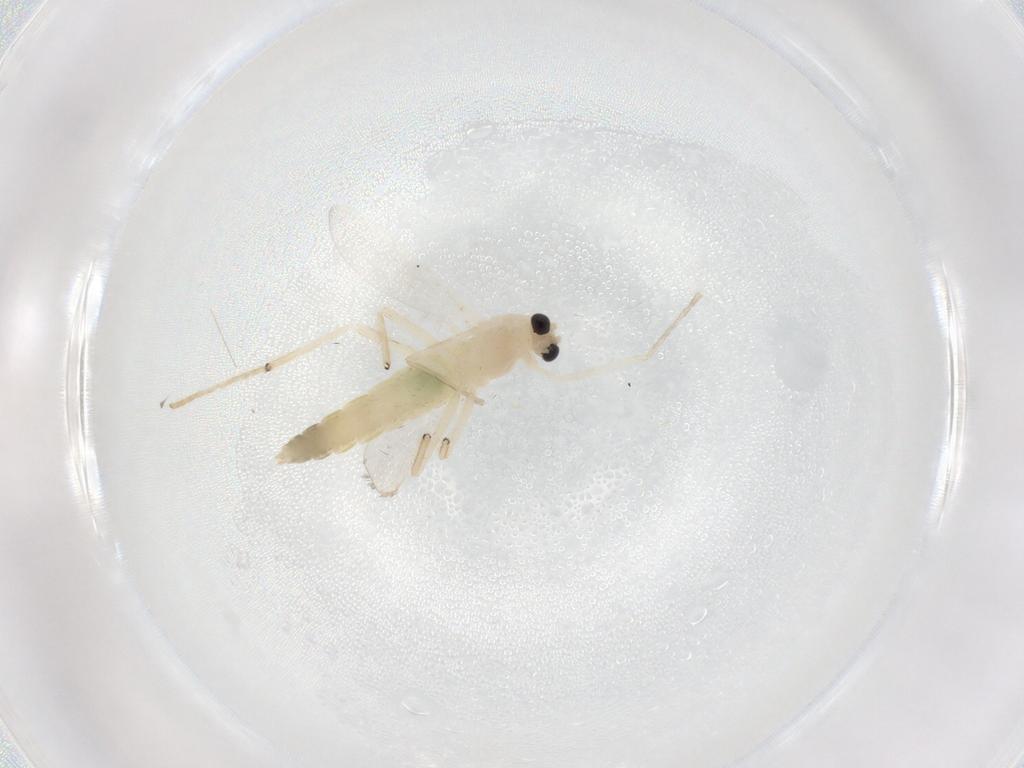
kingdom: Animalia
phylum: Arthropoda
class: Insecta
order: Diptera
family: Chironomidae
